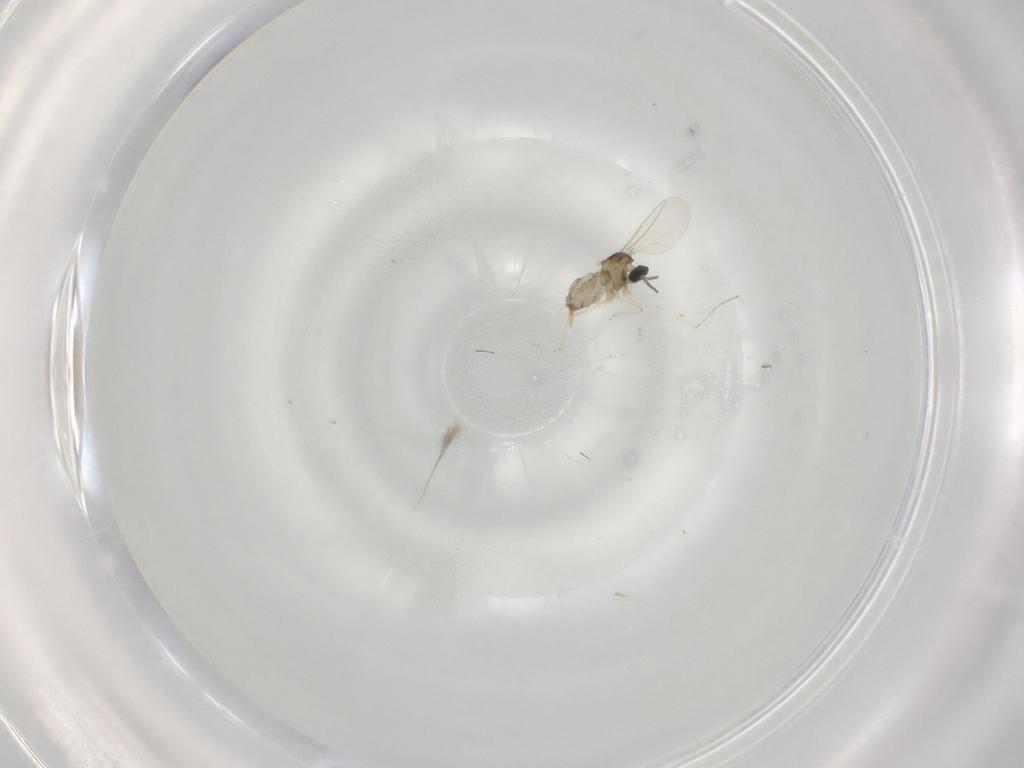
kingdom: Animalia
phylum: Arthropoda
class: Insecta
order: Diptera
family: Cecidomyiidae
